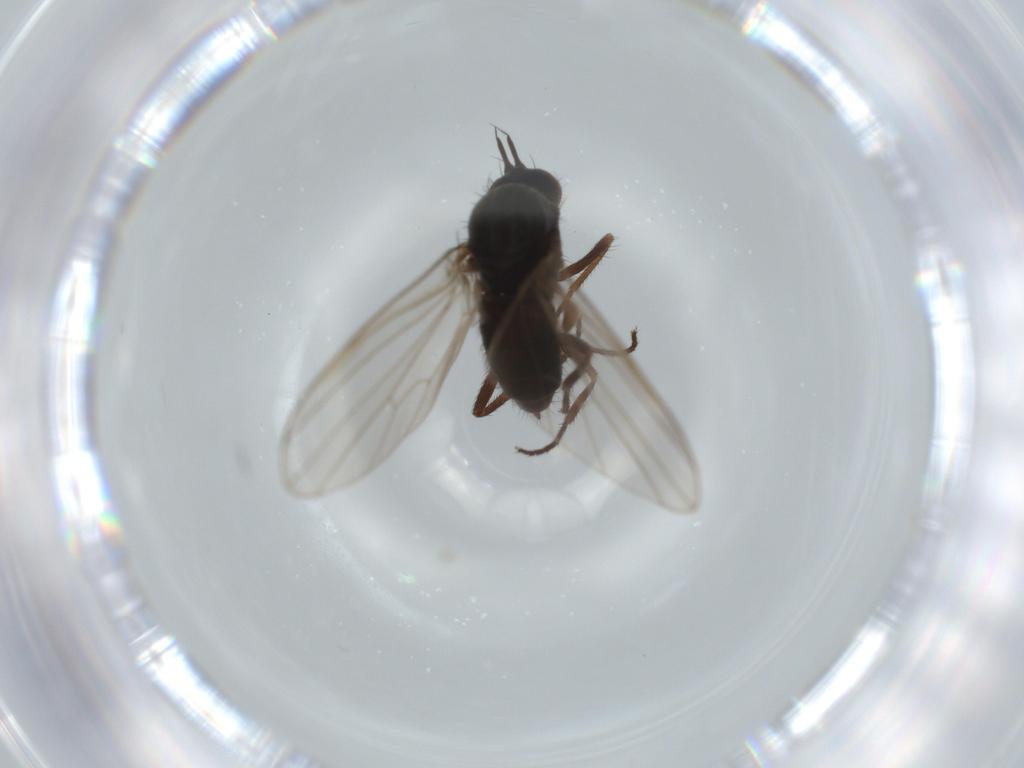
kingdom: Animalia
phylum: Arthropoda
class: Insecta
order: Diptera
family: Dolichopodidae
